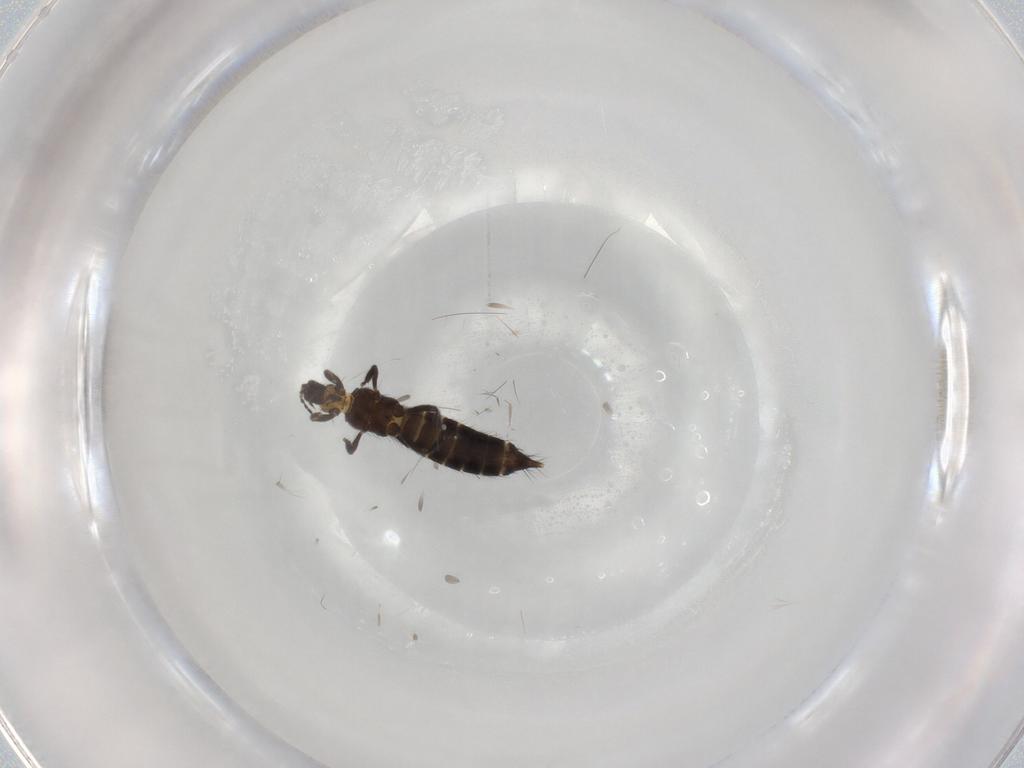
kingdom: Animalia
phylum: Arthropoda
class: Insecta
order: Thysanoptera
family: Thripidae
